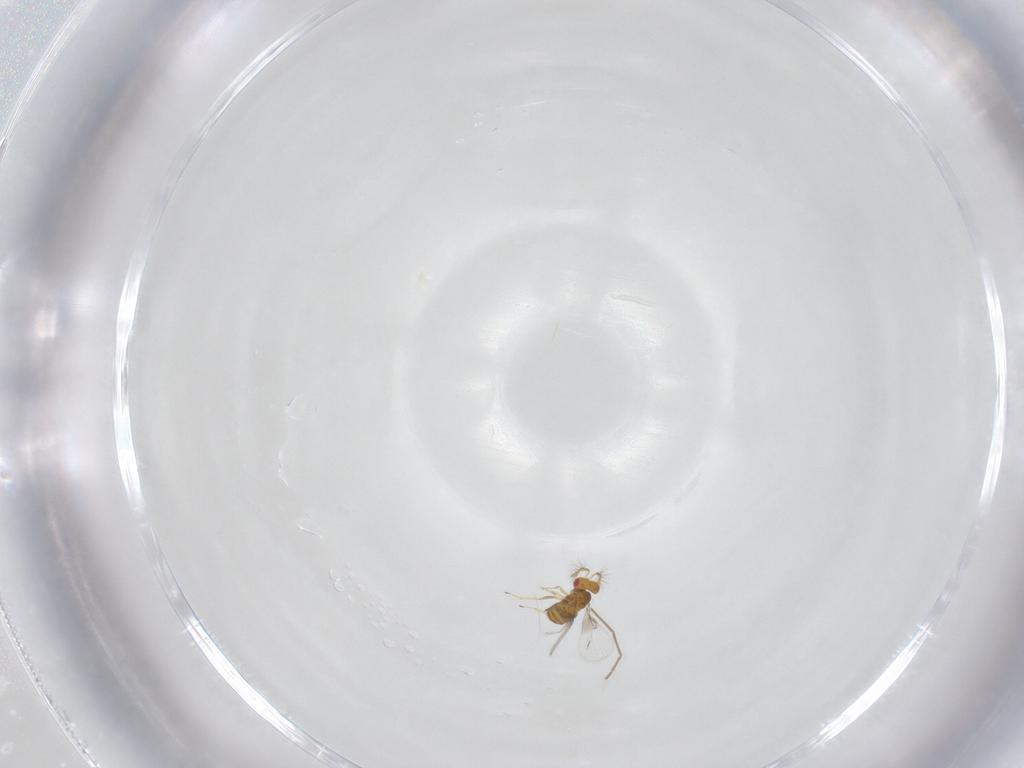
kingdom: Animalia
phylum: Arthropoda
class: Insecta
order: Hymenoptera
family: Trichogrammatidae
